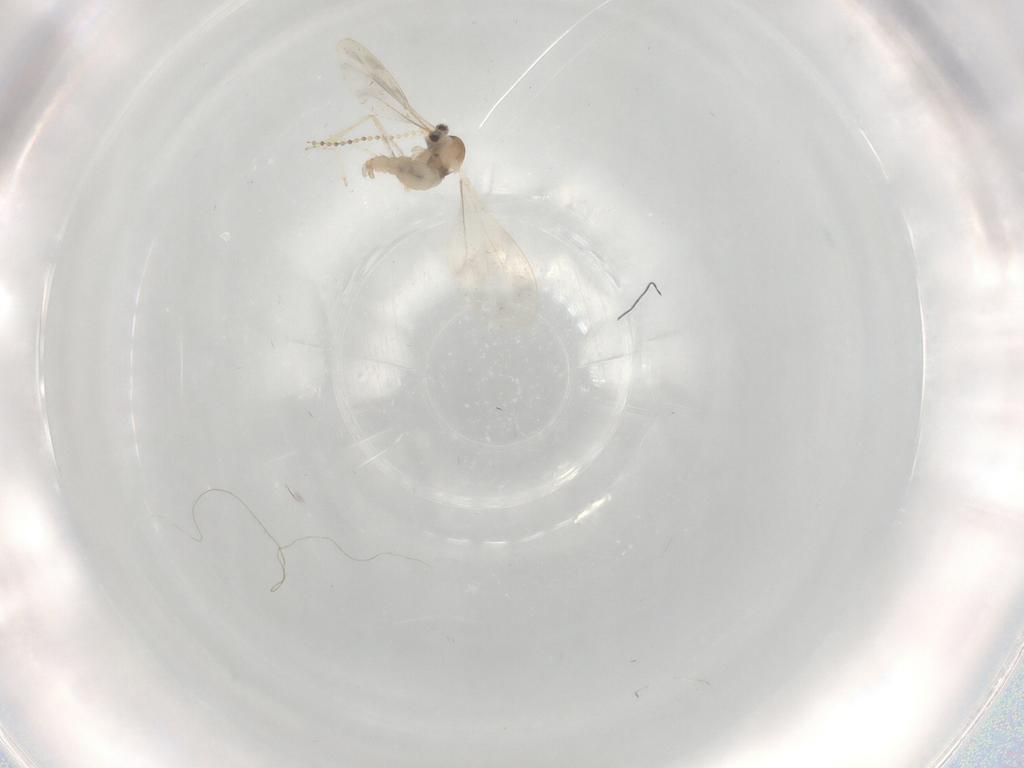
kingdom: Animalia
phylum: Arthropoda
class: Insecta
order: Diptera
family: Cecidomyiidae
